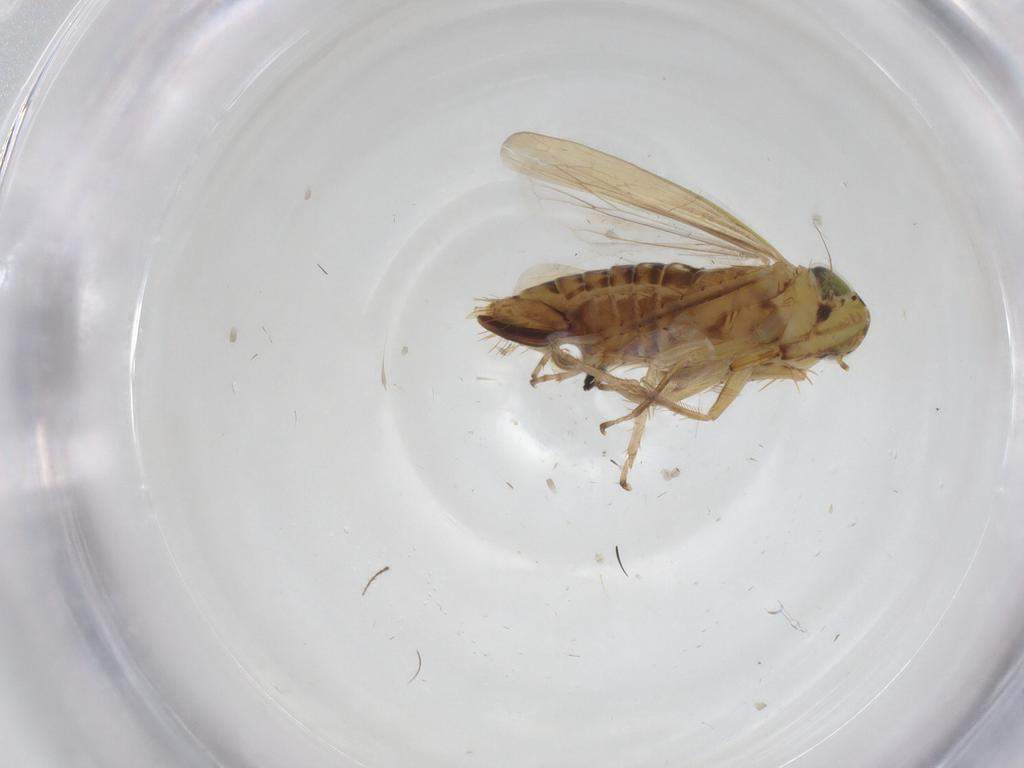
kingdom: Animalia
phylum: Arthropoda
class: Insecta
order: Hemiptera
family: Cicadellidae
